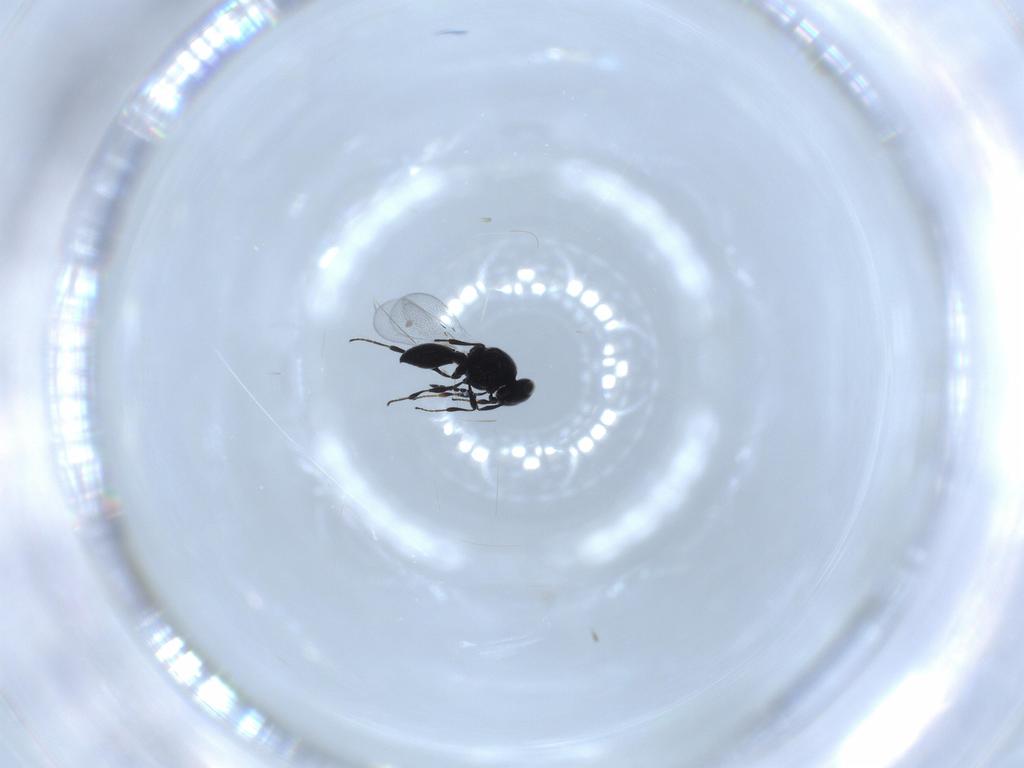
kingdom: Animalia
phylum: Arthropoda
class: Insecta
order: Diptera
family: Mythicomyiidae
